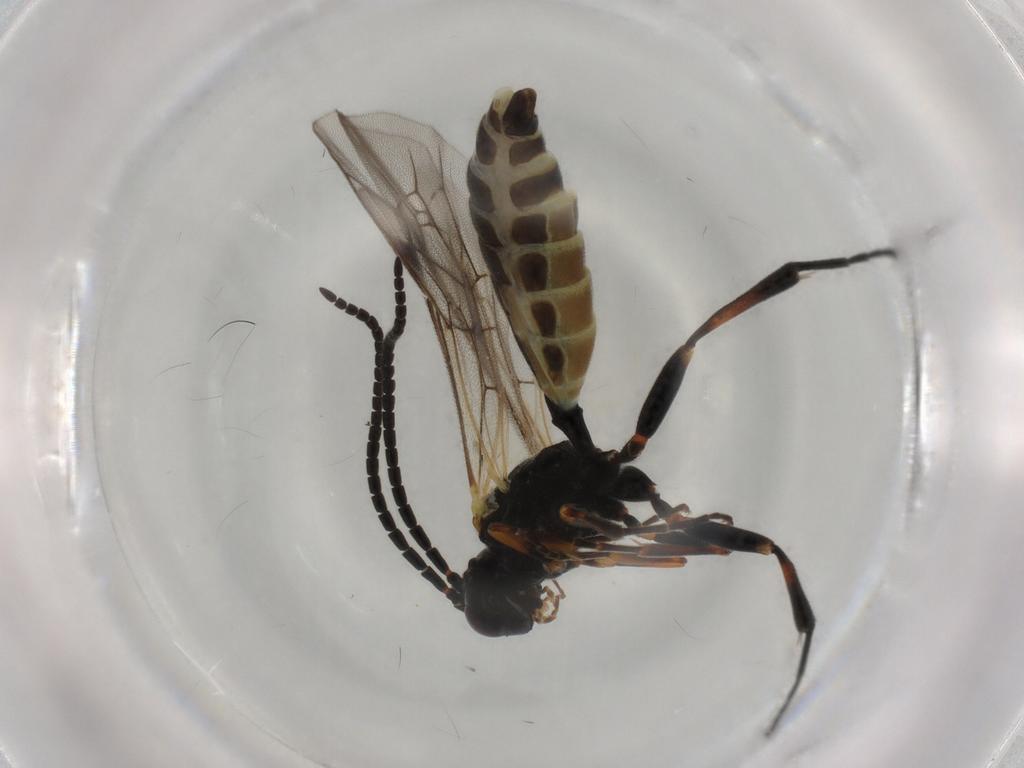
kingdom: Animalia
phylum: Arthropoda
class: Insecta
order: Hymenoptera
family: Ichneumonidae
